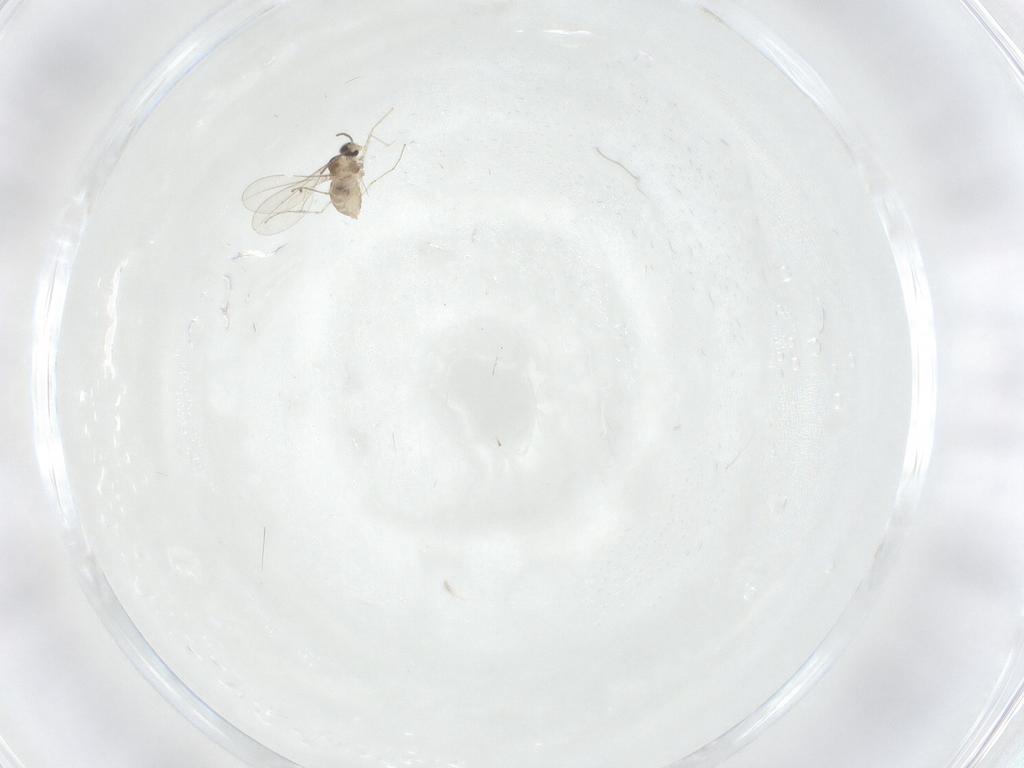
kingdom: Animalia
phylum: Arthropoda
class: Insecta
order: Diptera
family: Cecidomyiidae
